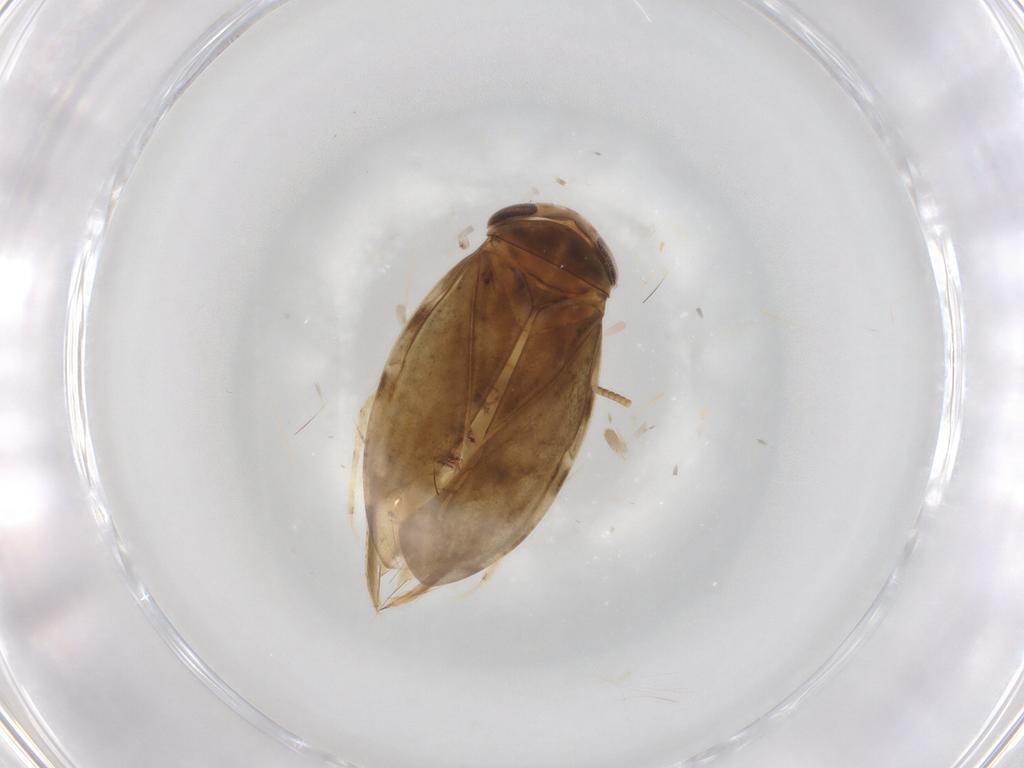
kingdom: Animalia
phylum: Arthropoda
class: Insecta
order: Hemiptera
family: Corixidae
